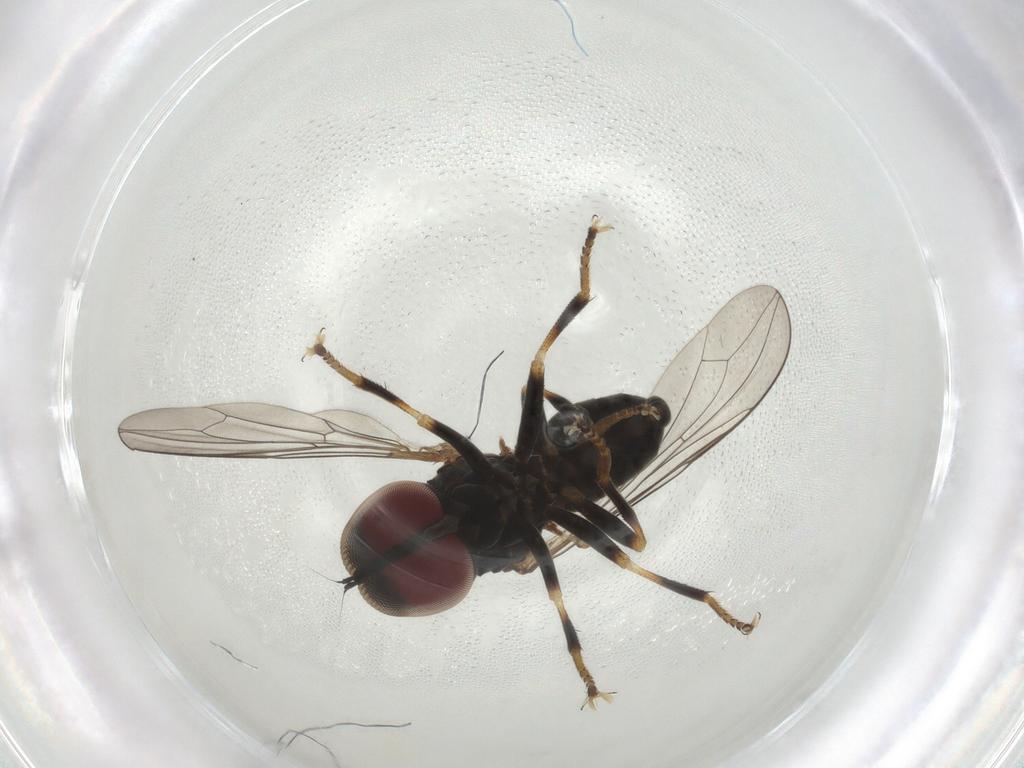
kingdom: Animalia
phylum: Arthropoda
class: Insecta
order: Diptera
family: Pipunculidae
